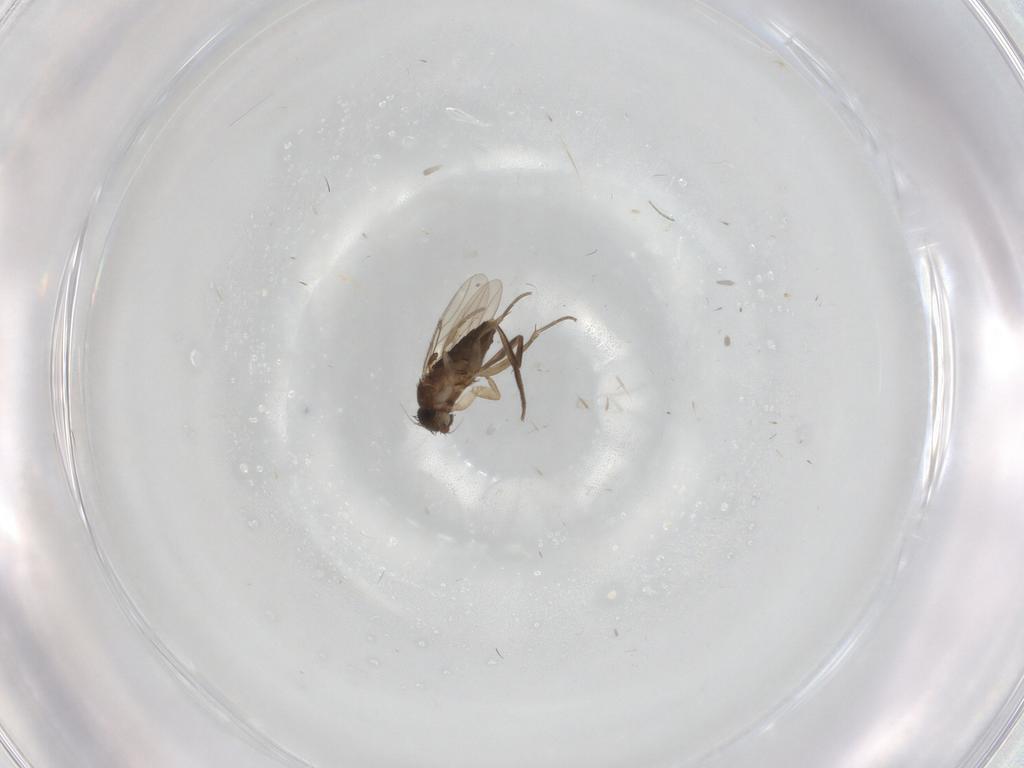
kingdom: Animalia
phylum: Arthropoda
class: Insecta
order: Diptera
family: Phoridae
